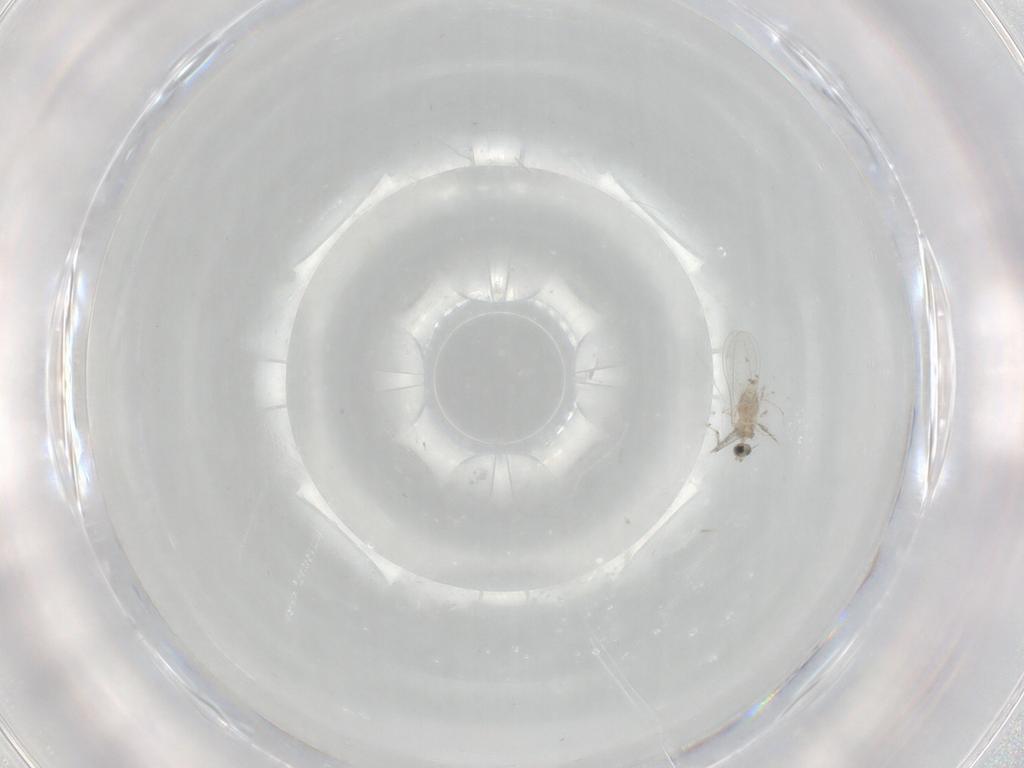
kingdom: Animalia
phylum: Arthropoda
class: Insecta
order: Diptera
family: Cecidomyiidae
